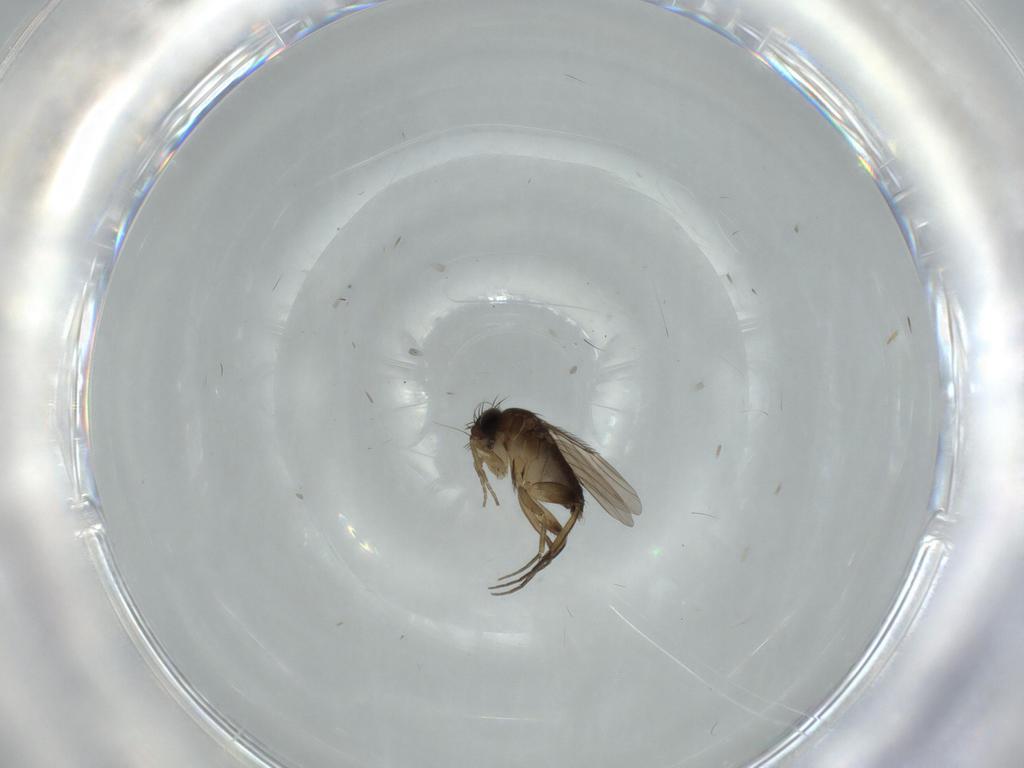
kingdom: Animalia
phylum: Arthropoda
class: Insecta
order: Diptera
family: Phoridae
